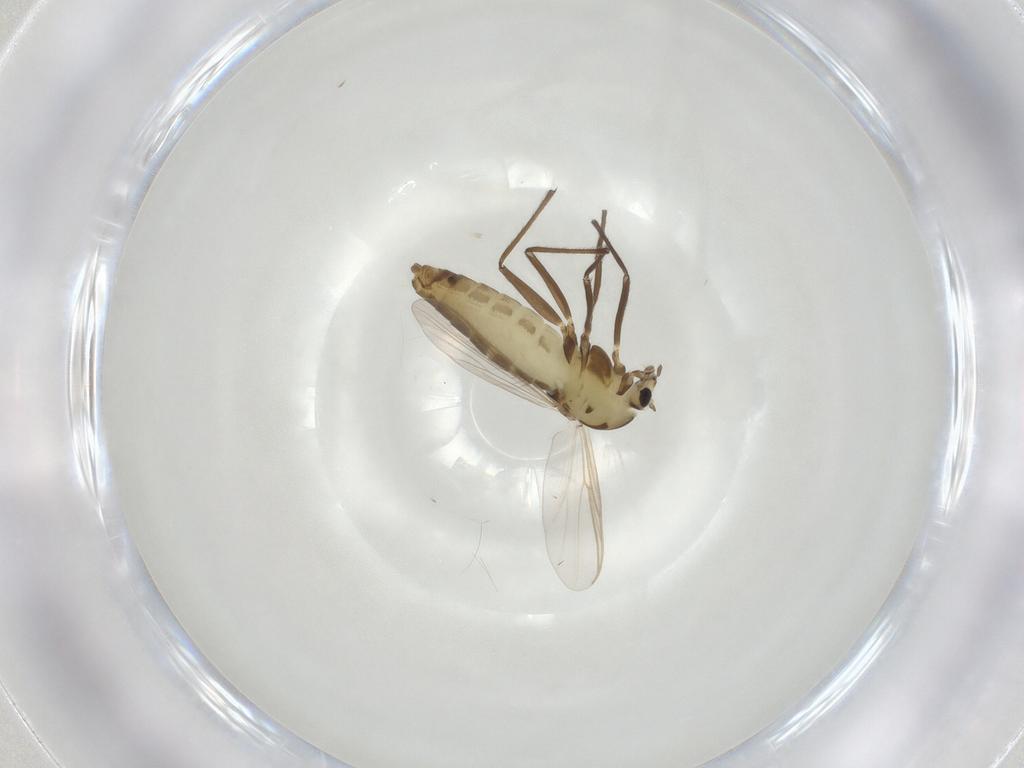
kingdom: Animalia
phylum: Arthropoda
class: Insecta
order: Diptera
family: Chironomidae
